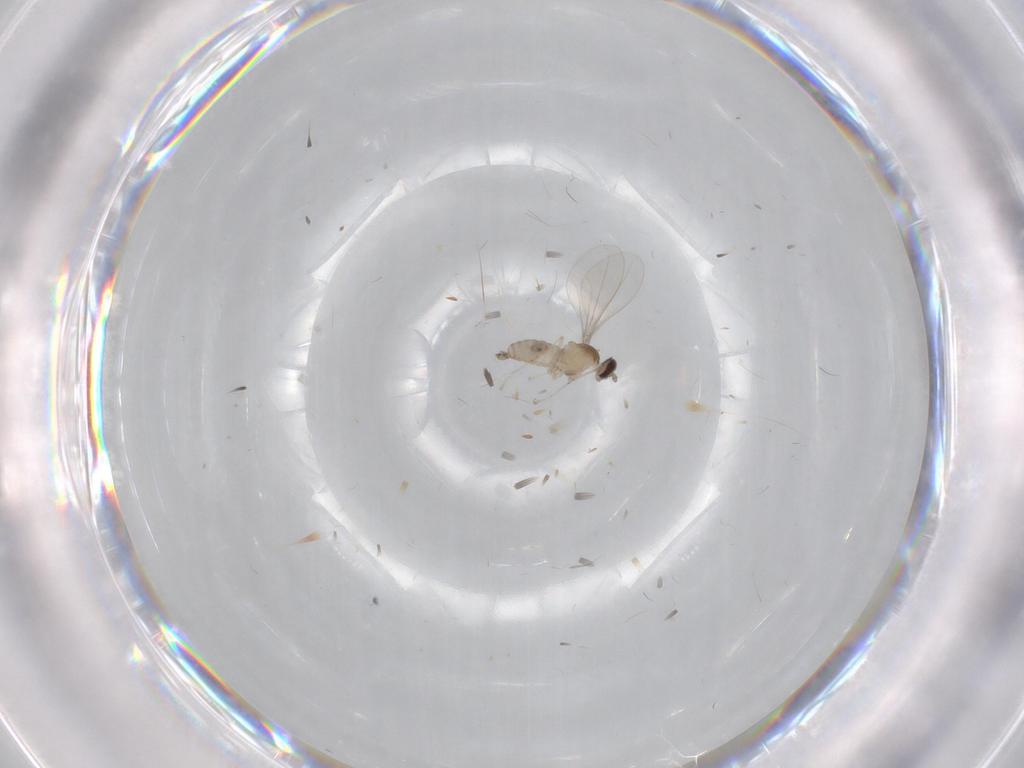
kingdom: Animalia
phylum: Arthropoda
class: Insecta
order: Diptera
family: Cecidomyiidae
